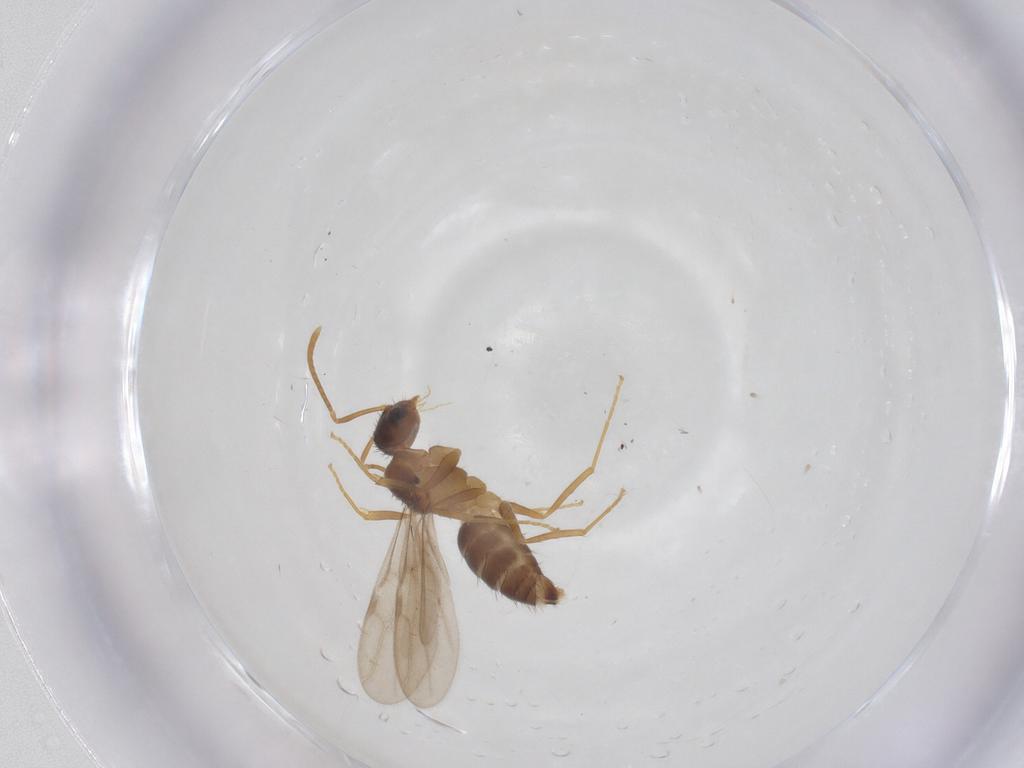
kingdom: Animalia
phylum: Arthropoda
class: Insecta
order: Hymenoptera
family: Formicidae
